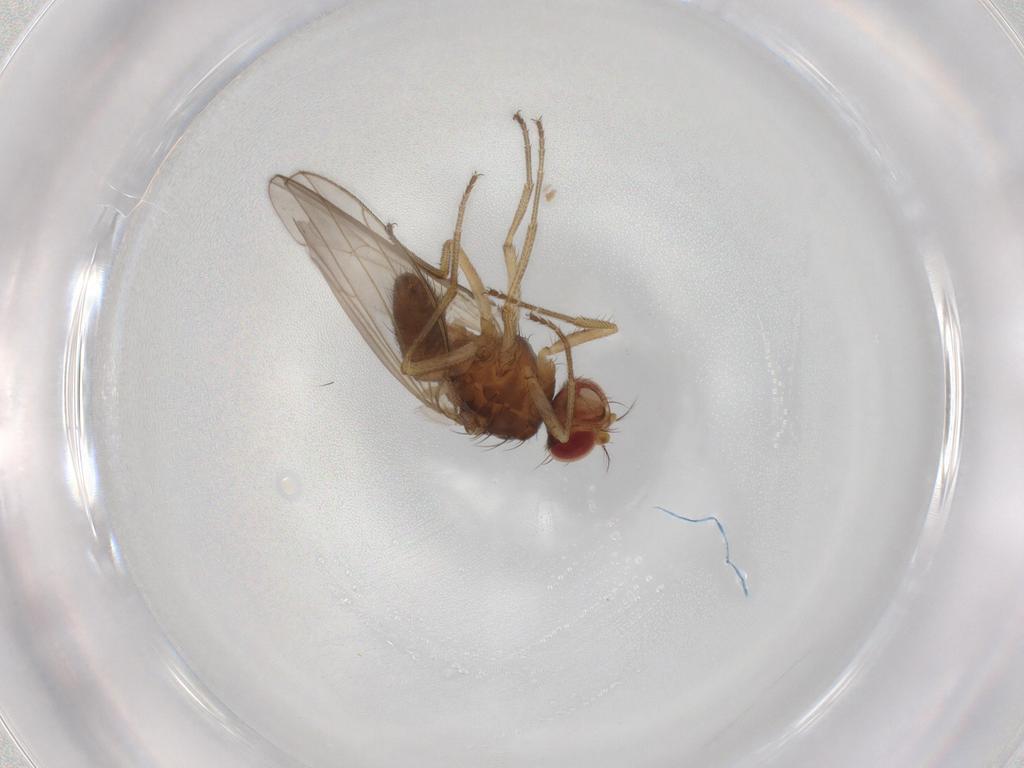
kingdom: Animalia
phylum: Arthropoda
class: Insecta
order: Diptera
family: Drosophilidae
